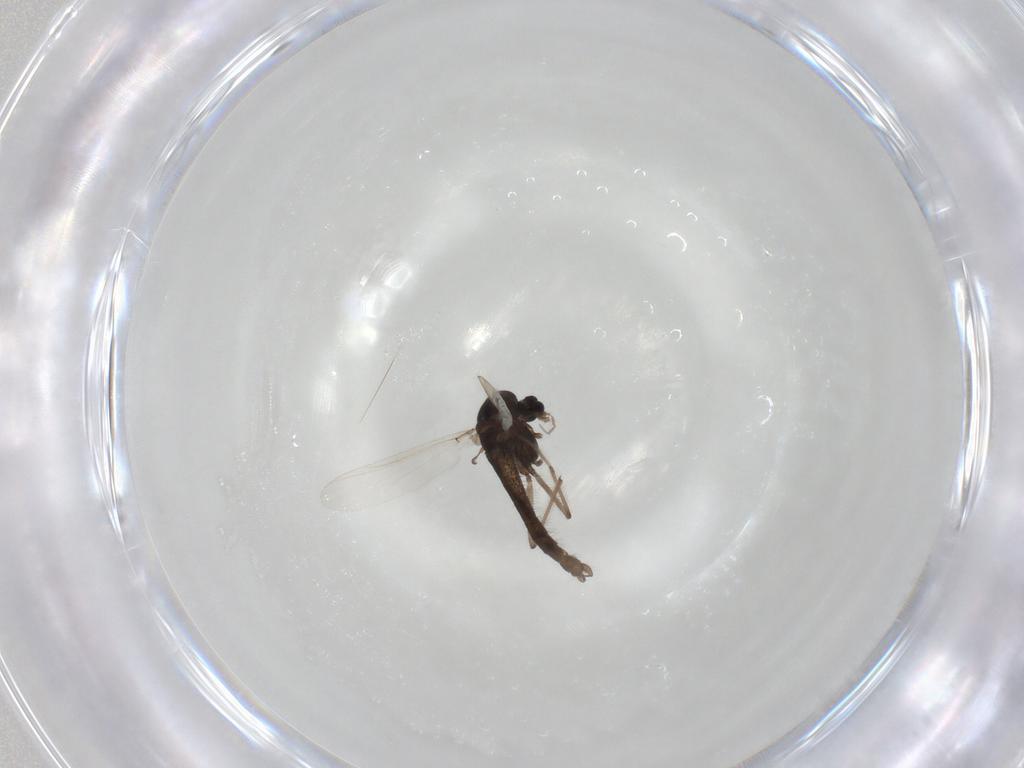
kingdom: Animalia
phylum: Arthropoda
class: Insecta
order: Diptera
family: Chironomidae
